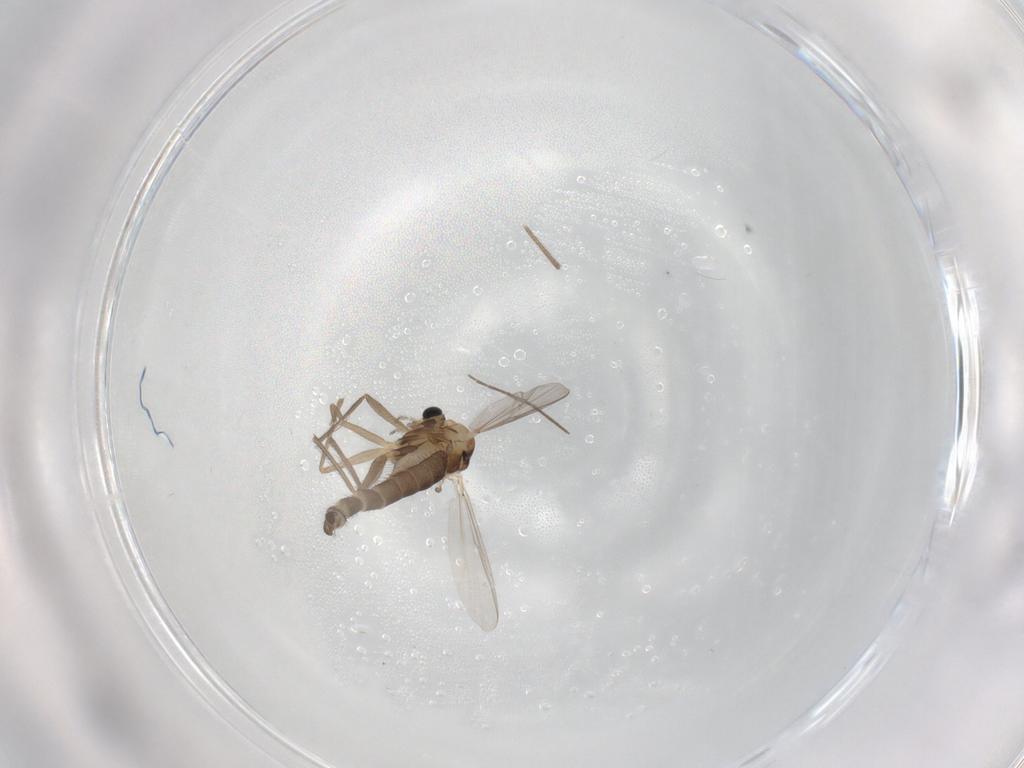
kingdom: Animalia
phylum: Arthropoda
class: Insecta
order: Diptera
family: Chironomidae
